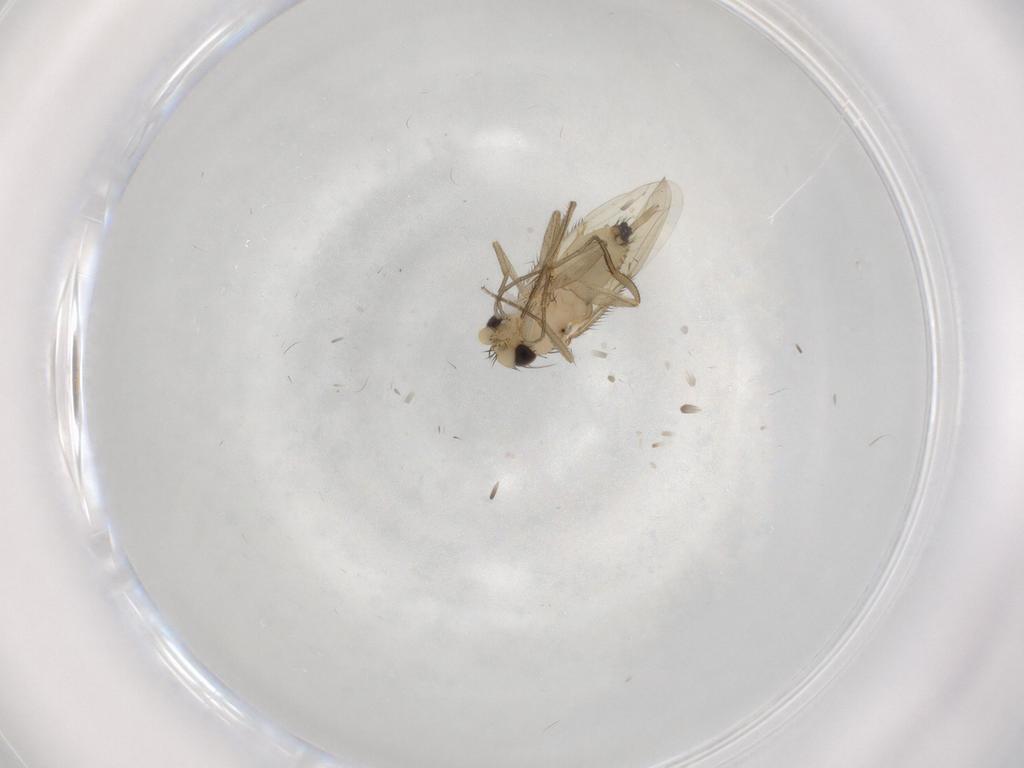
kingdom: Animalia
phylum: Arthropoda
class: Insecta
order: Diptera
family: Phoridae
